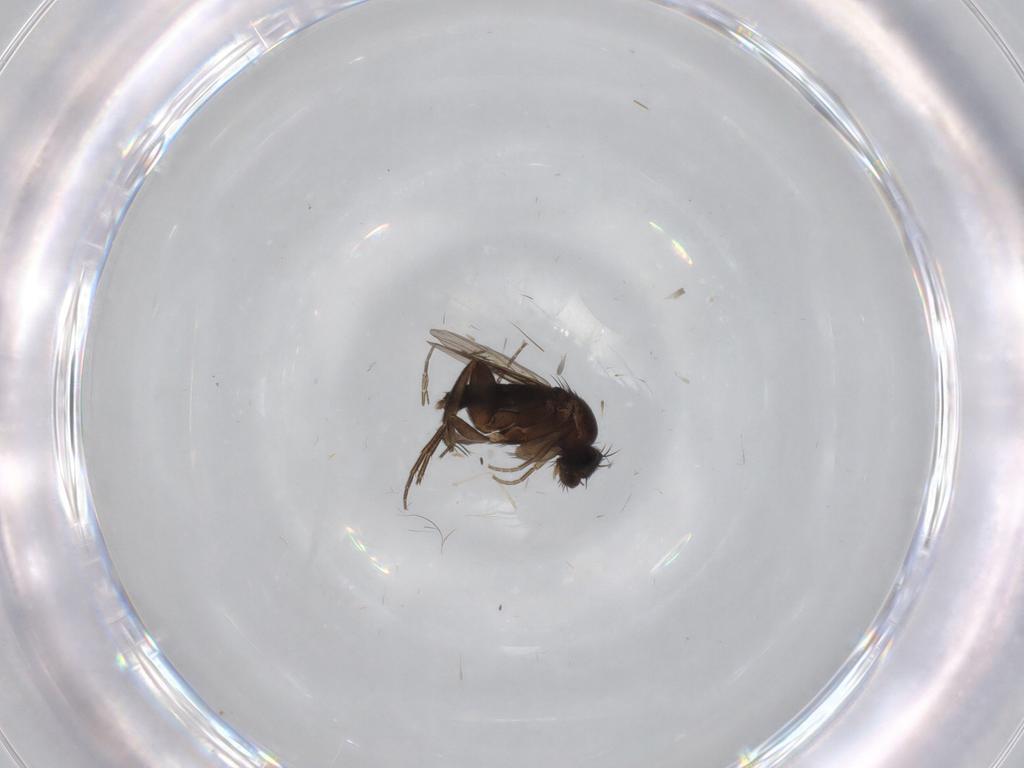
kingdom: Animalia
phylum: Arthropoda
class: Insecta
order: Diptera
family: Phoridae
